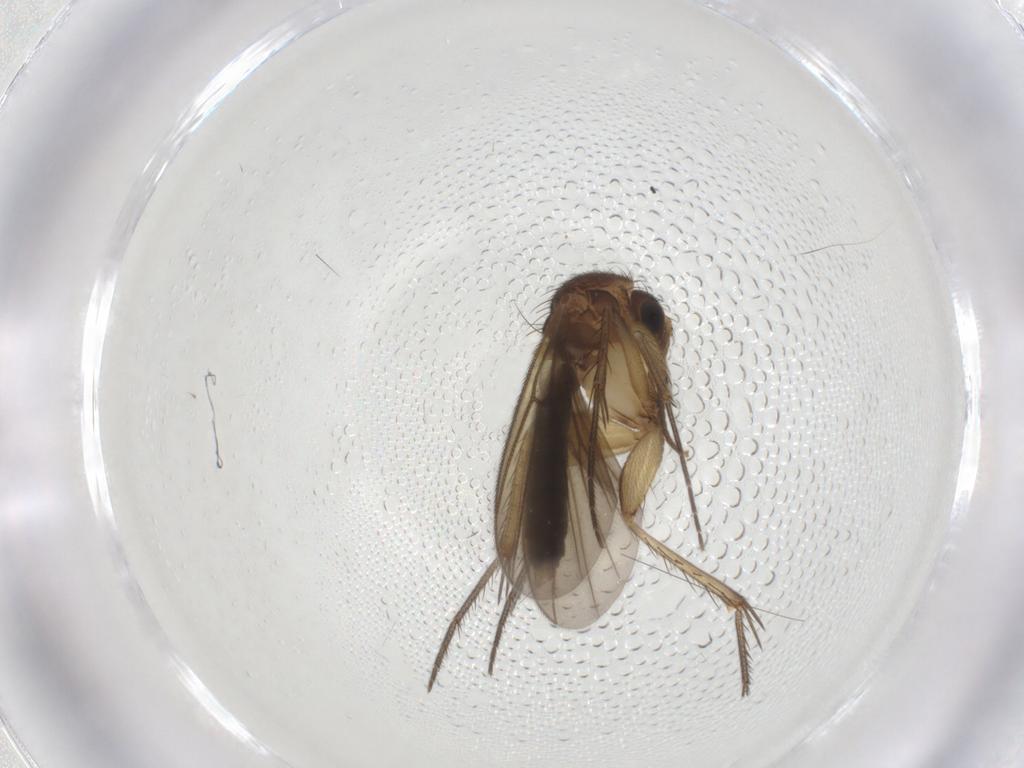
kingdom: Animalia
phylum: Arthropoda
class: Insecta
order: Diptera
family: Mycetophilidae
